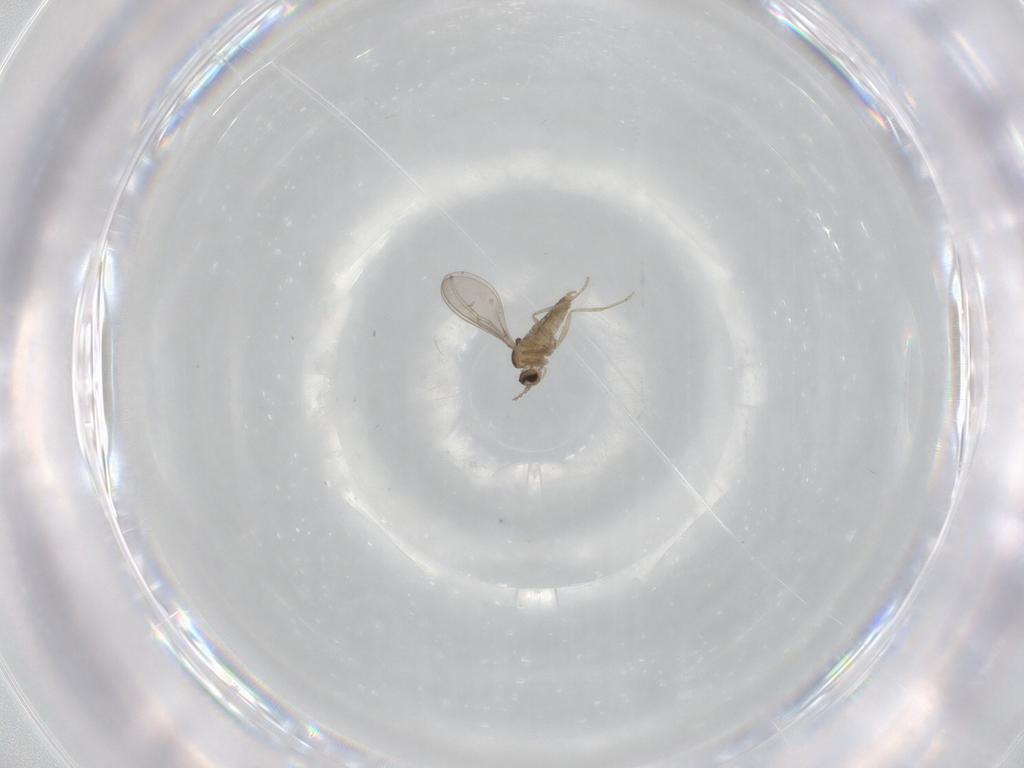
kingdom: Animalia
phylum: Arthropoda
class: Insecta
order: Diptera
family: Cecidomyiidae
